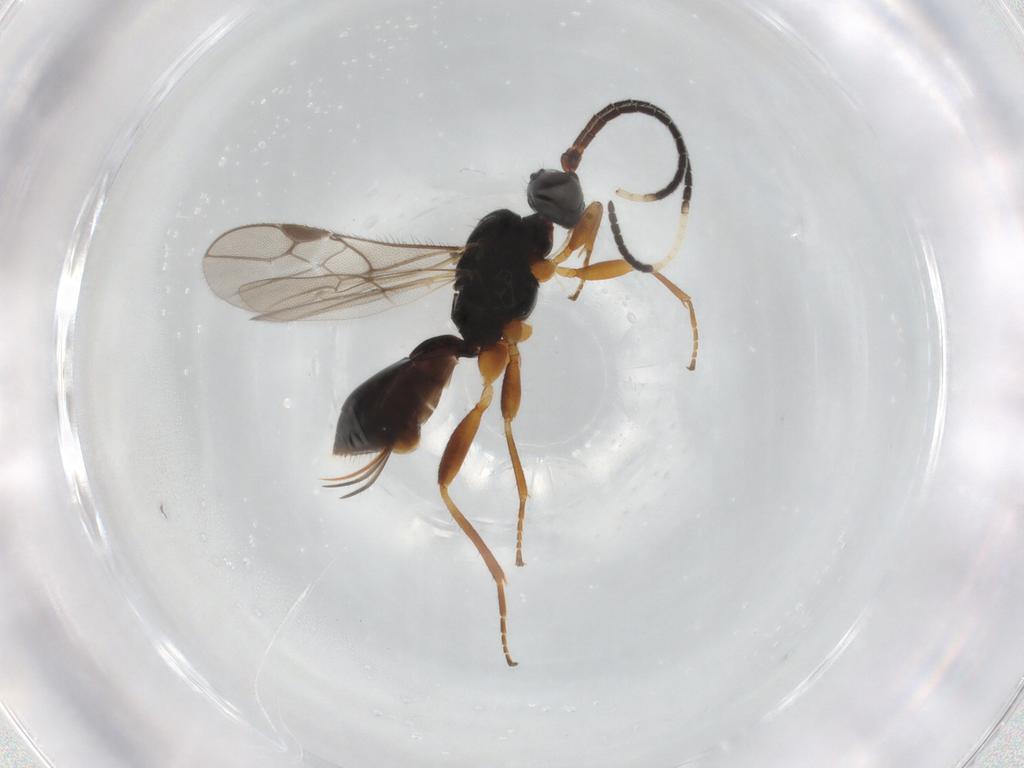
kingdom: Animalia
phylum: Arthropoda
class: Insecta
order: Hymenoptera
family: Braconidae
